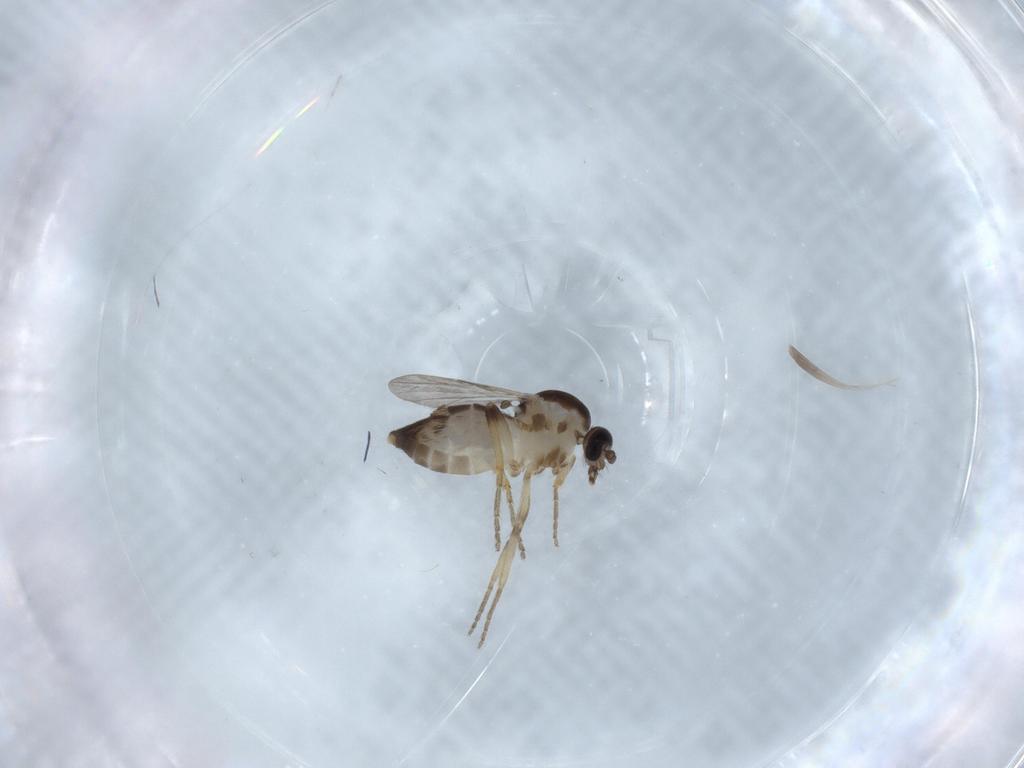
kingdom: Animalia
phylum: Arthropoda
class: Insecta
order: Diptera
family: Ceratopogonidae
